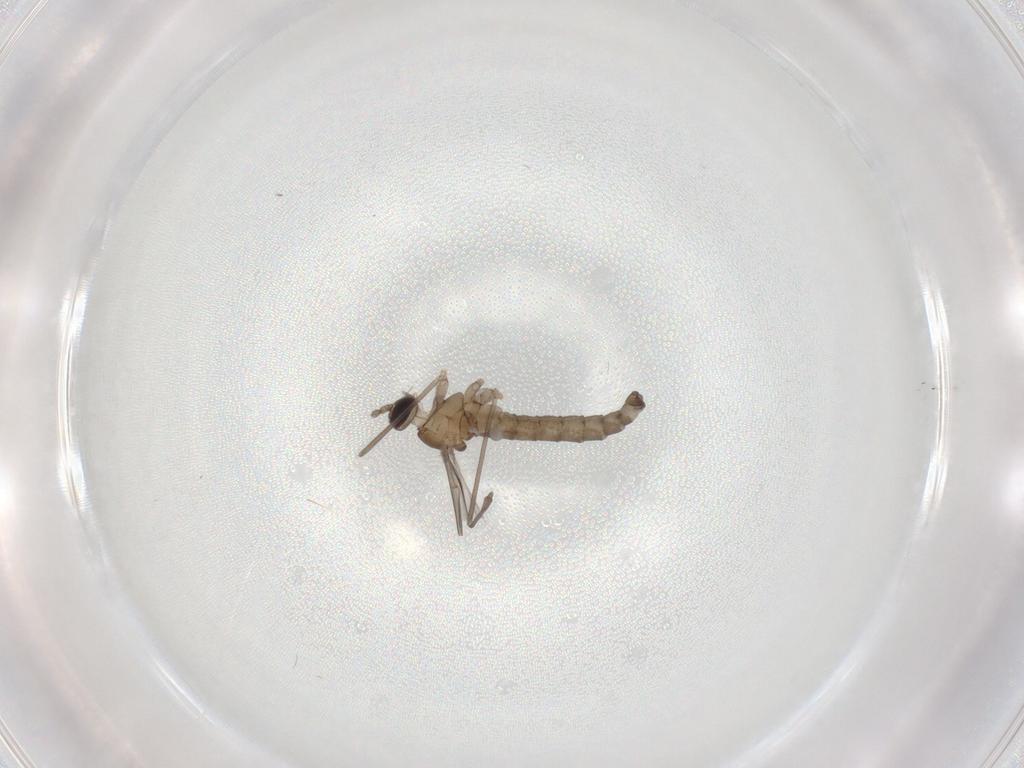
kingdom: Animalia
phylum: Arthropoda
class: Insecta
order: Diptera
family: Cecidomyiidae
